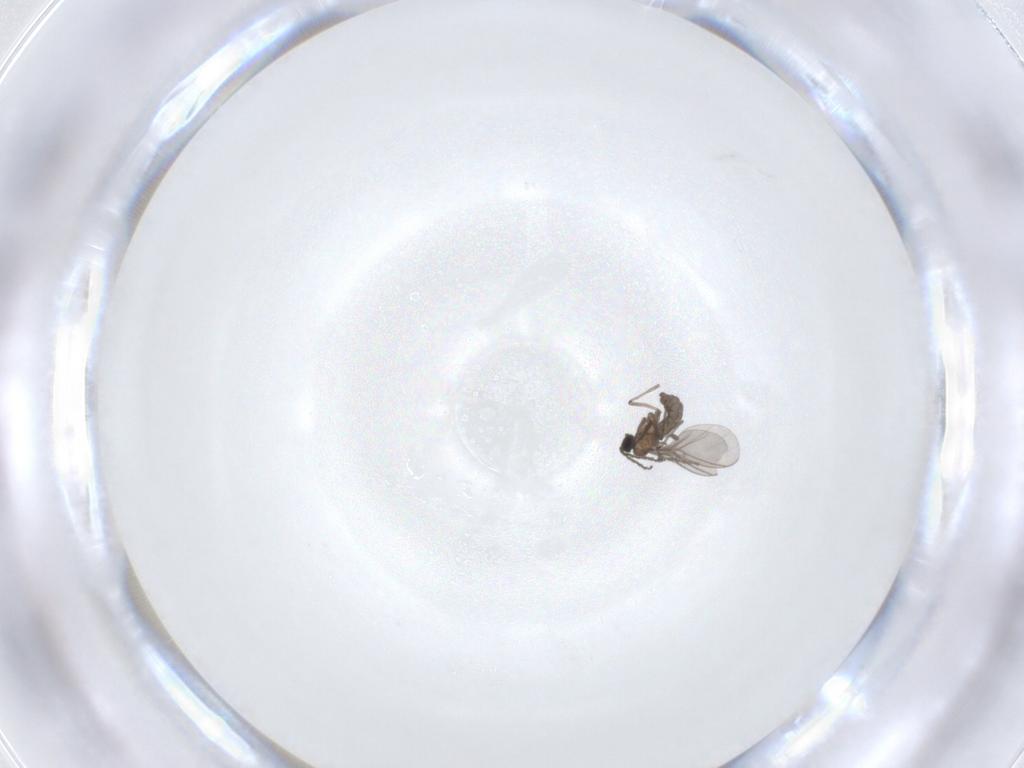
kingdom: Animalia
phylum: Arthropoda
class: Insecta
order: Diptera
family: Sciaridae
